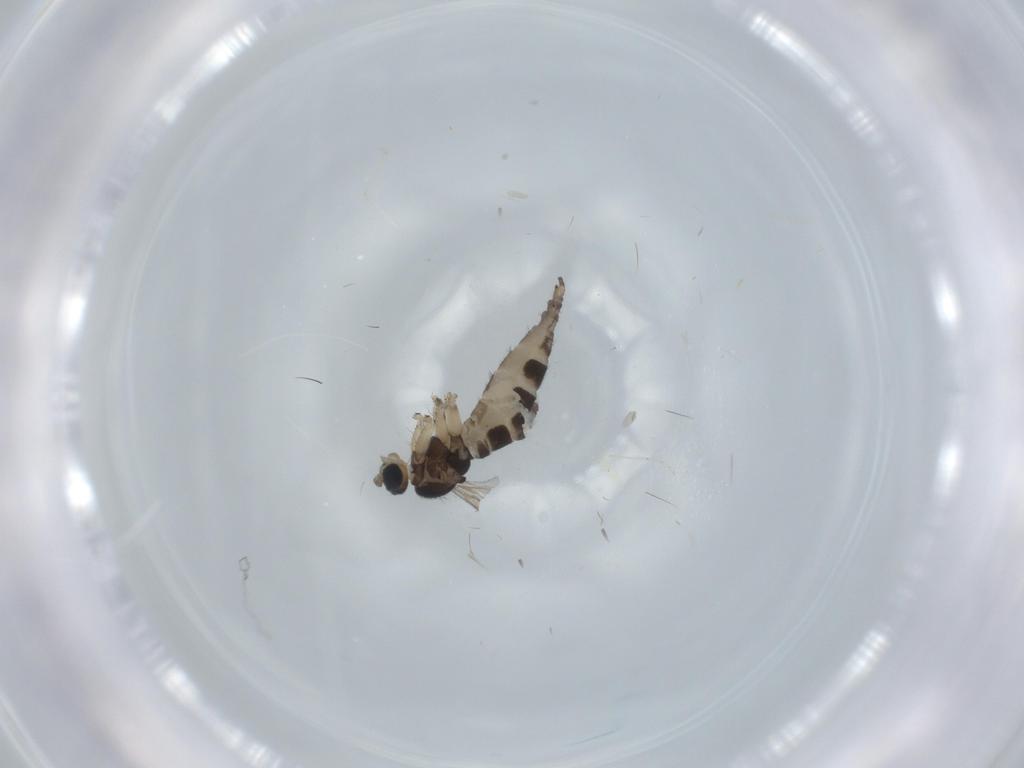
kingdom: Animalia
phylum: Arthropoda
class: Insecta
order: Diptera
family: Sciaridae
